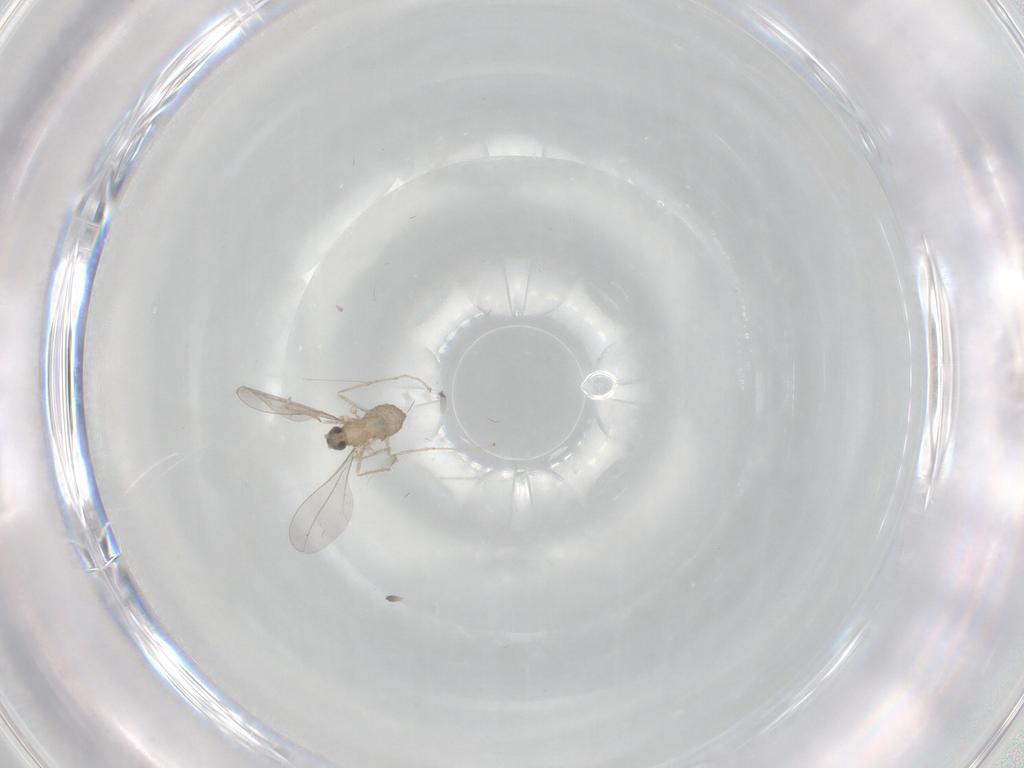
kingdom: Animalia
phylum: Arthropoda
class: Insecta
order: Diptera
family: Cecidomyiidae
